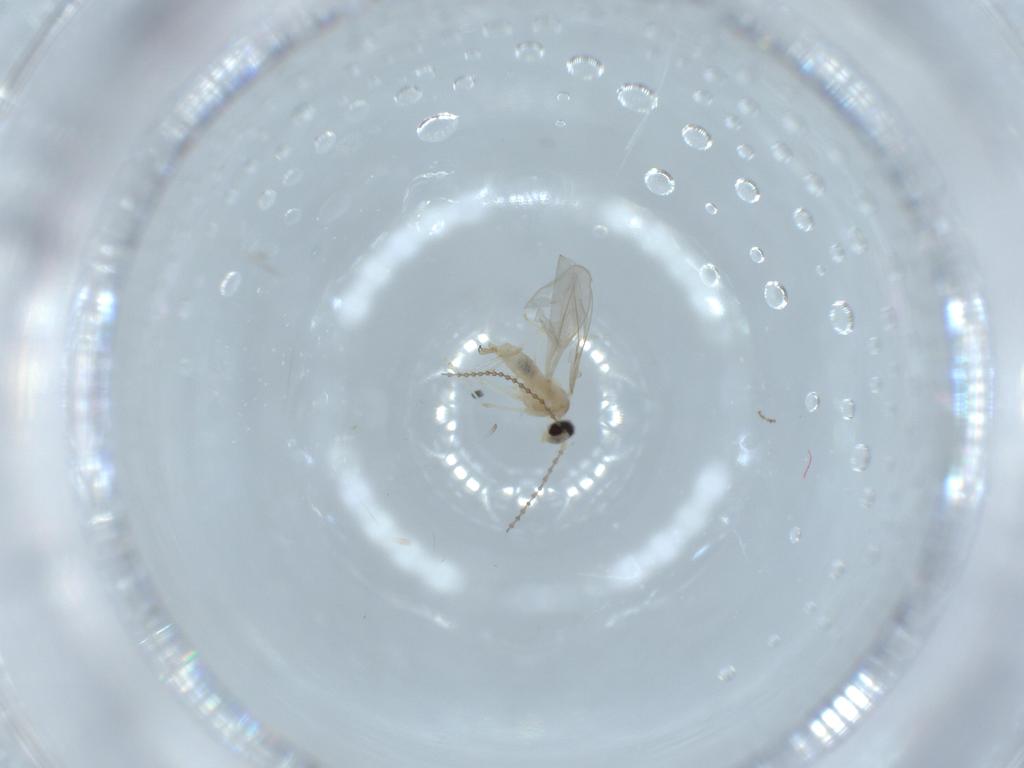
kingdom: Animalia
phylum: Arthropoda
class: Insecta
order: Diptera
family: Cecidomyiidae
